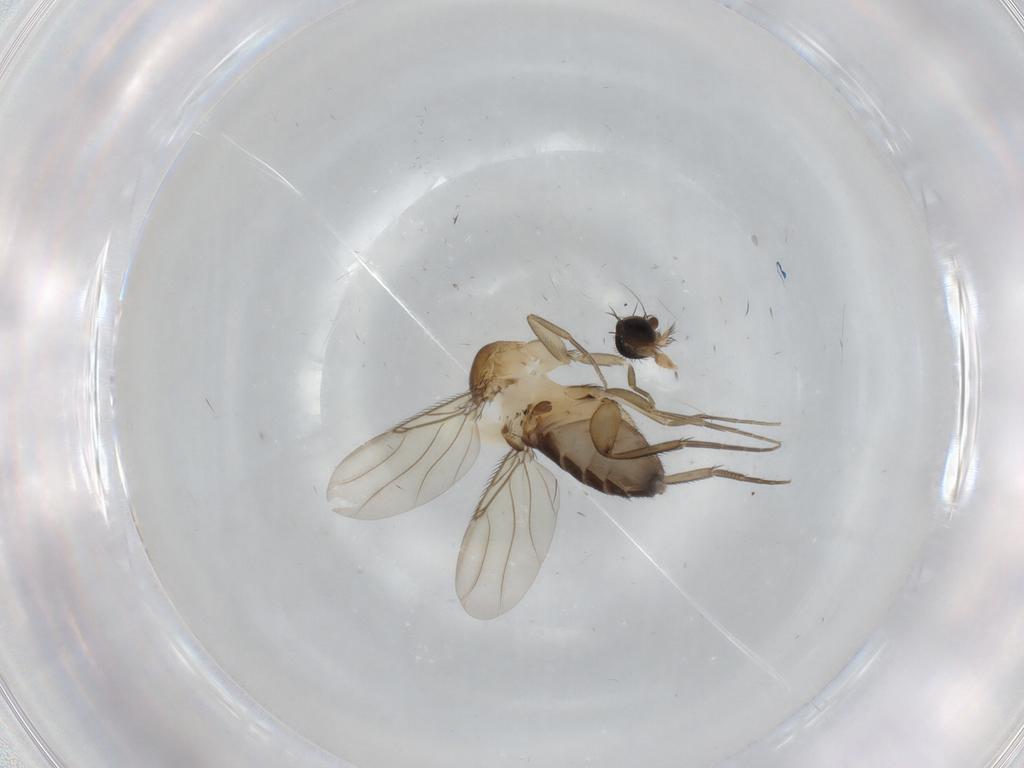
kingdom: Animalia
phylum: Arthropoda
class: Insecta
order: Diptera
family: Phoridae
